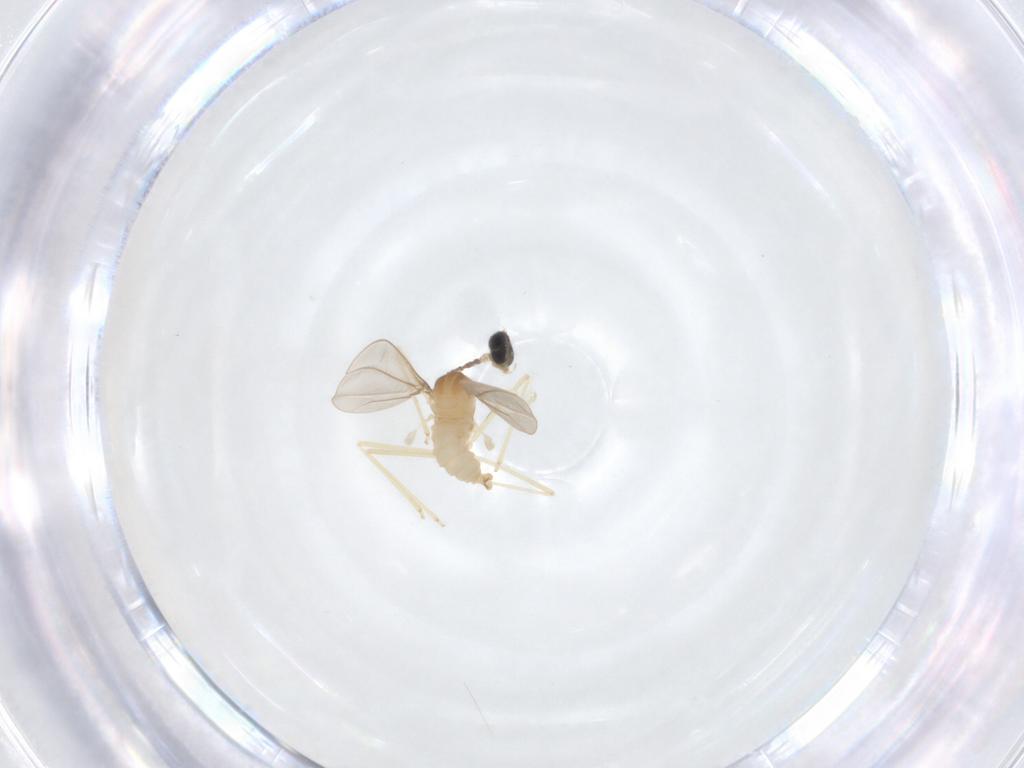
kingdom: Animalia
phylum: Arthropoda
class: Insecta
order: Diptera
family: Cecidomyiidae
